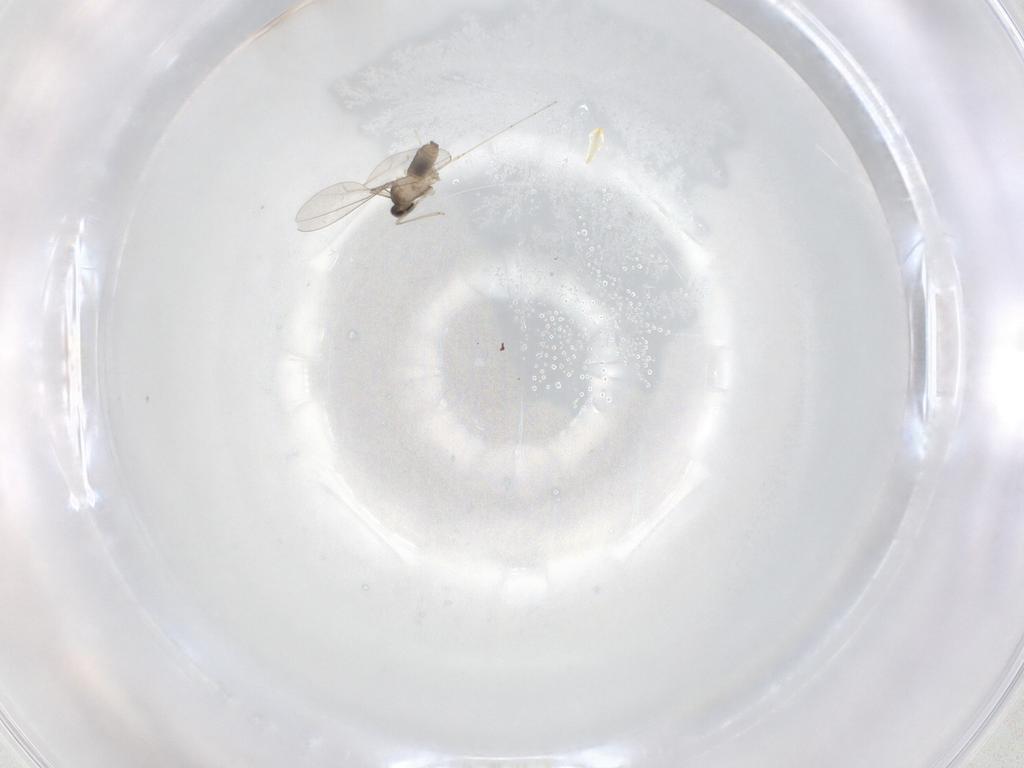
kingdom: Animalia
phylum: Arthropoda
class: Insecta
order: Diptera
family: Cecidomyiidae
